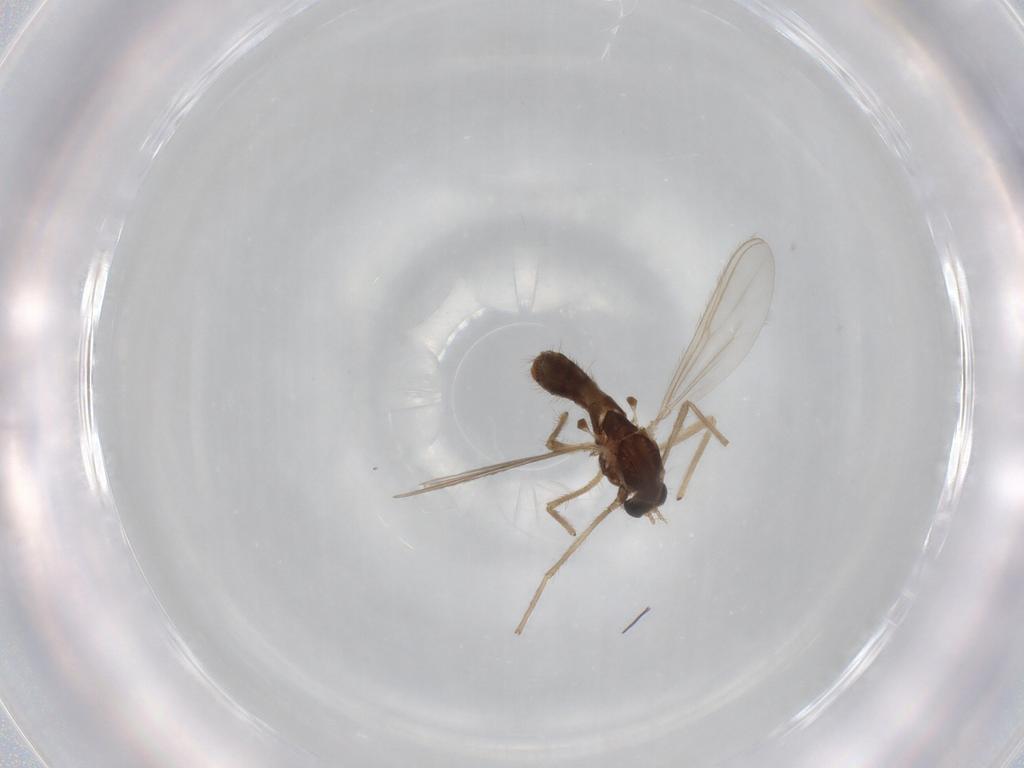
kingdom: Animalia
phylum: Arthropoda
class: Insecta
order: Diptera
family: Chironomidae
